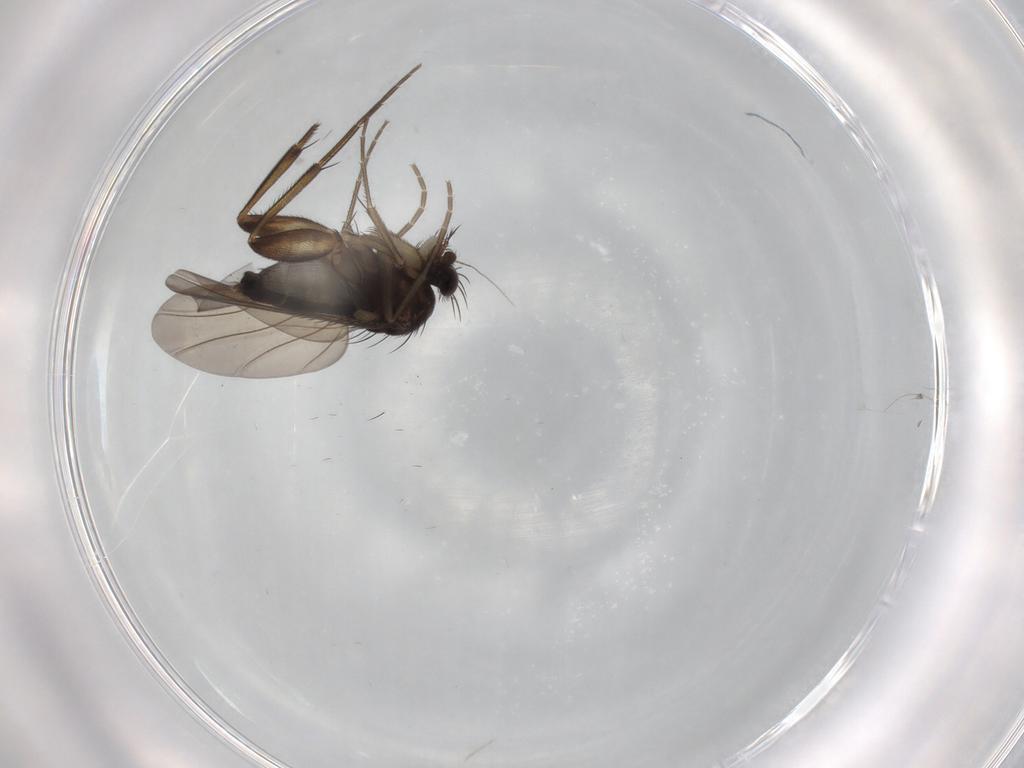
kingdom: Animalia
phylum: Arthropoda
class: Insecta
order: Diptera
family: Phoridae
